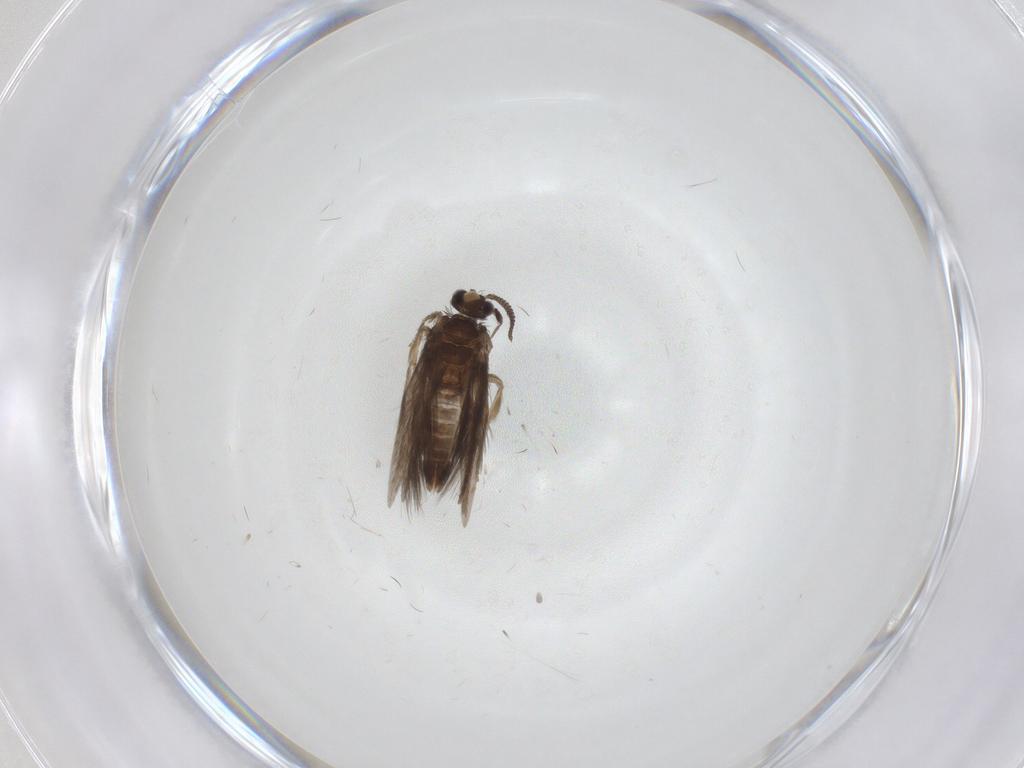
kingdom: Animalia
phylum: Arthropoda
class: Insecta
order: Trichoptera
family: Hydroptilidae
